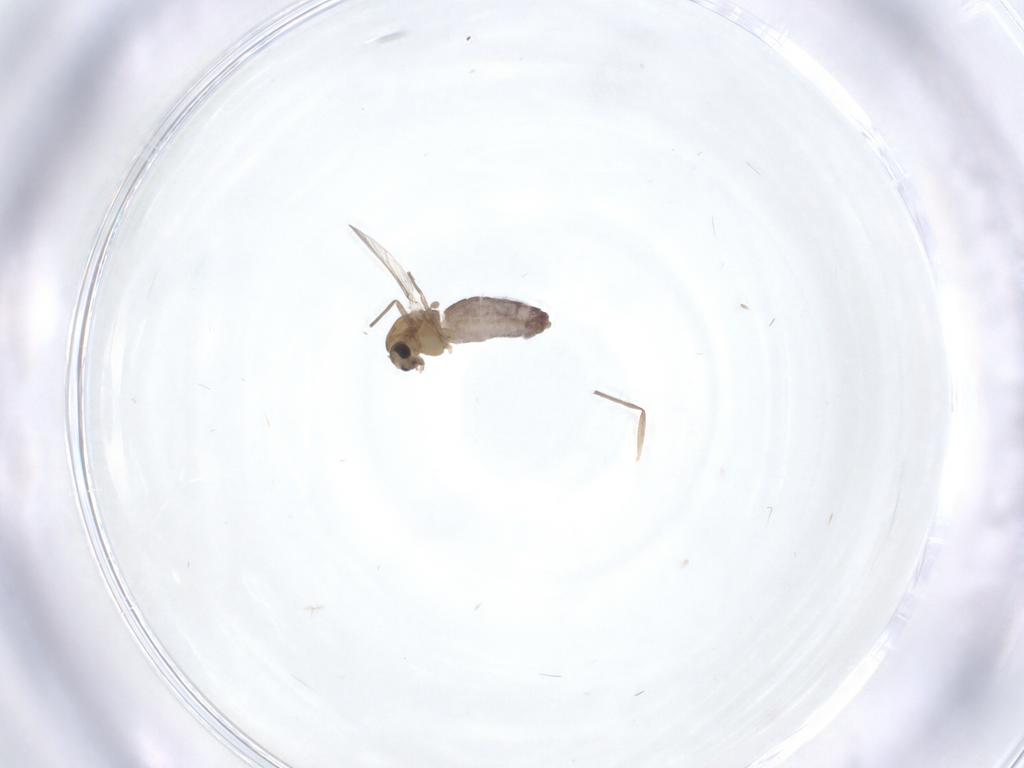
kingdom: Animalia
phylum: Arthropoda
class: Insecta
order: Diptera
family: Chironomidae
